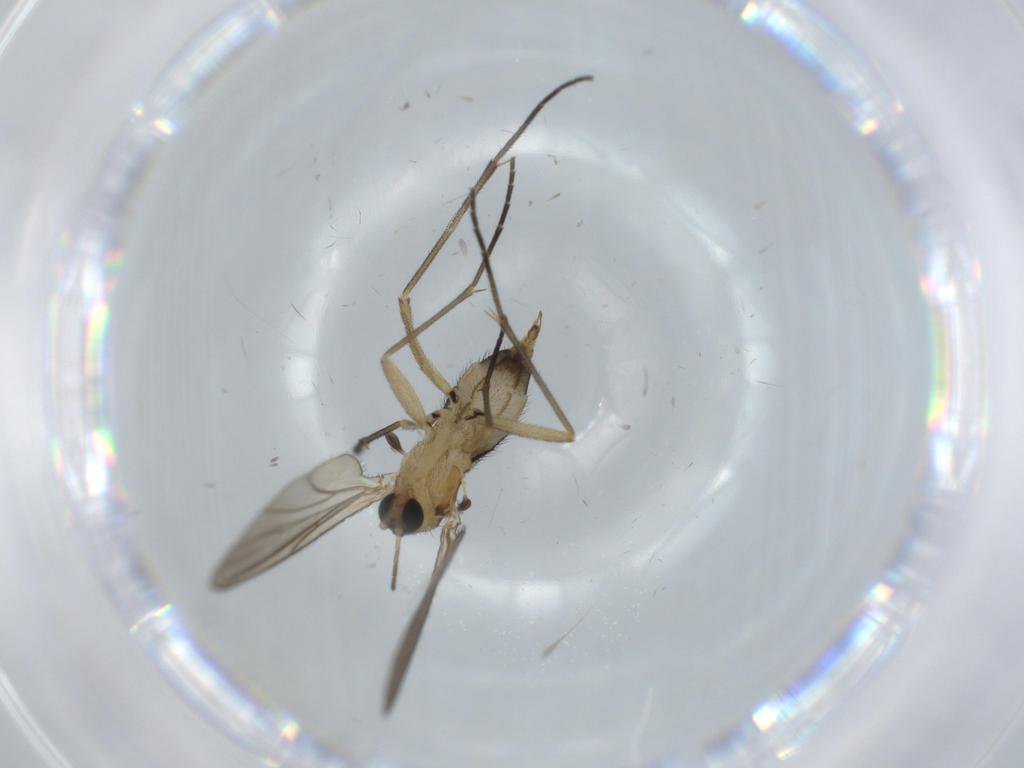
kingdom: Animalia
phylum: Arthropoda
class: Insecta
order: Diptera
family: Sciaridae
